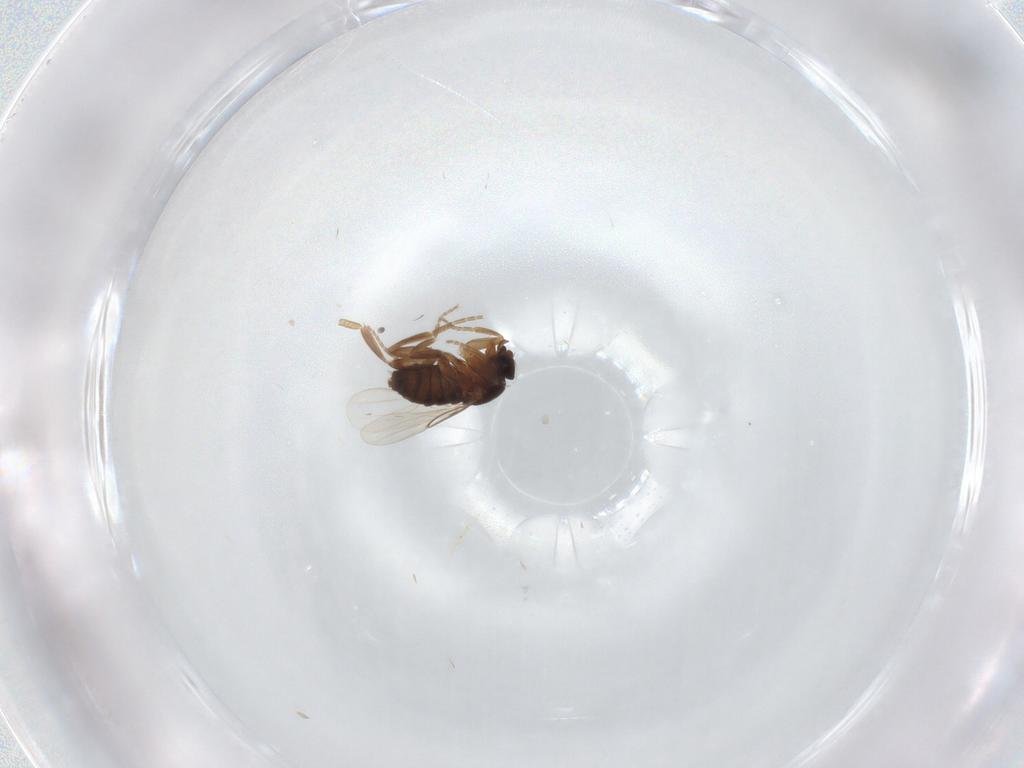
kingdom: Animalia
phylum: Arthropoda
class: Insecta
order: Diptera
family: Phoridae
